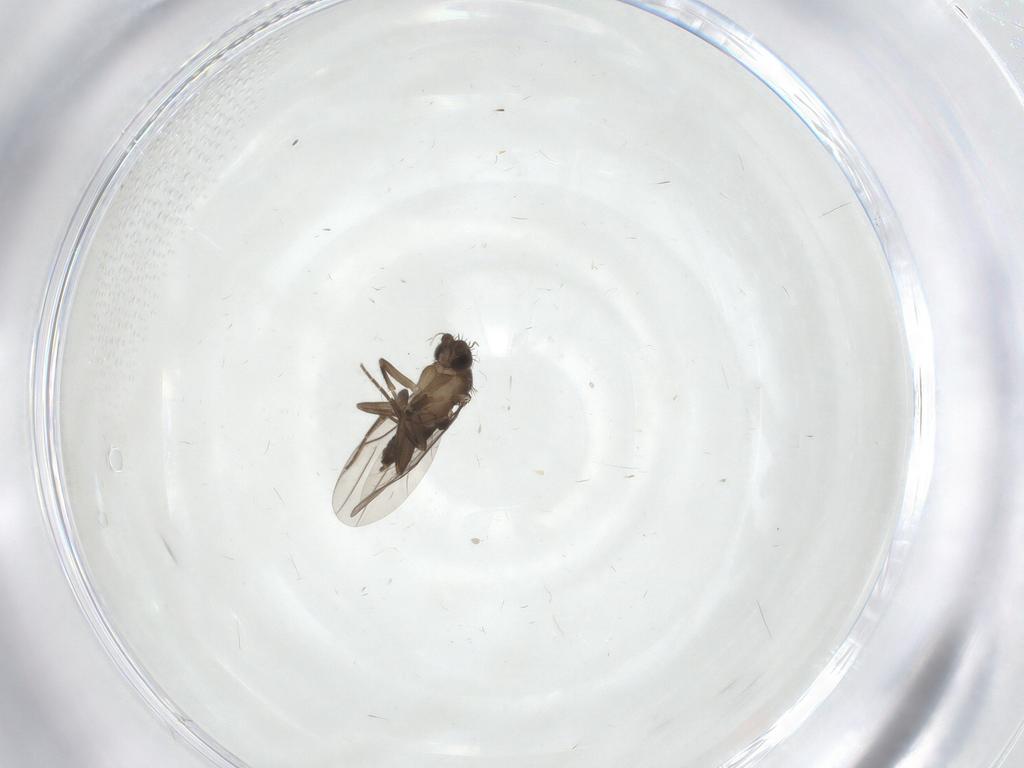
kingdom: Animalia
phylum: Arthropoda
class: Insecta
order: Diptera
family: Phoridae
